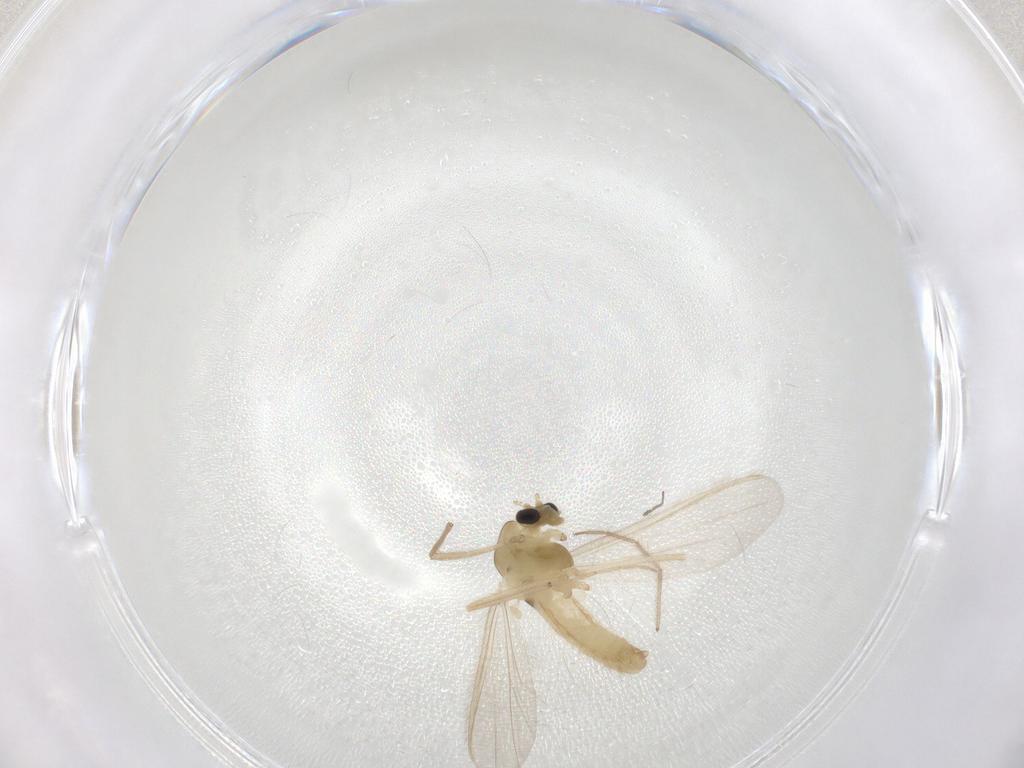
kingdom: Animalia
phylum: Arthropoda
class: Insecta
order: Diptera
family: Chironomidae
